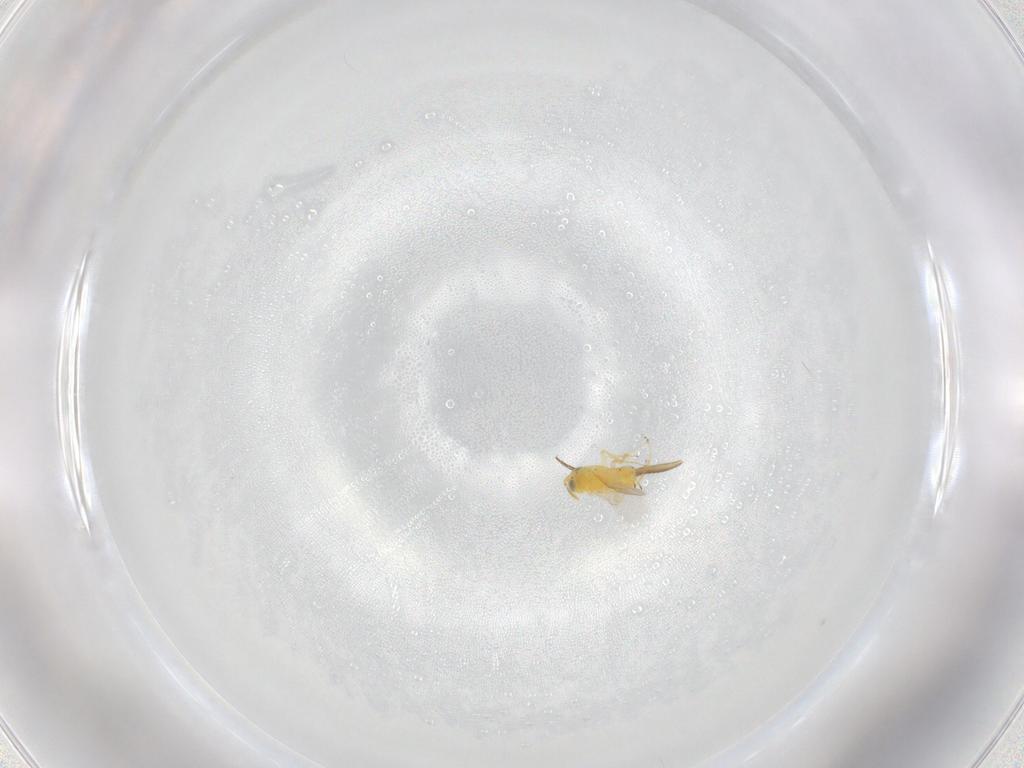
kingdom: Animalia
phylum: Arthropoda
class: Insecta
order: Hymenoptera
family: Encyrtidae
